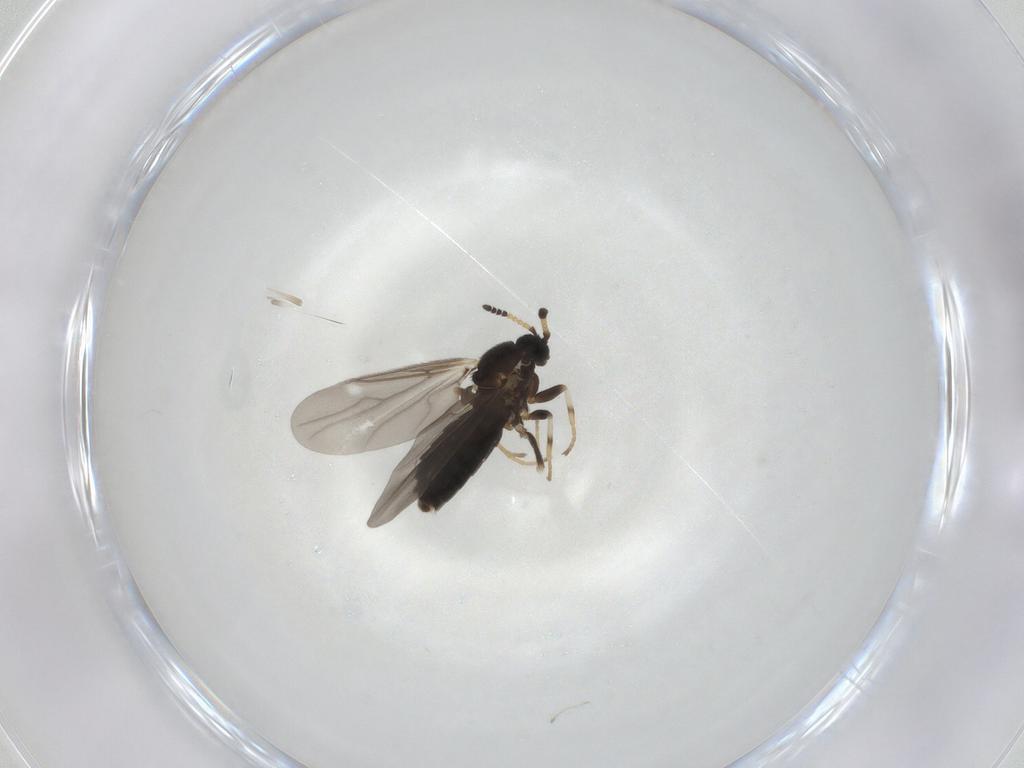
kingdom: Animalia
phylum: Arthropoda
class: Insecta
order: Diptera
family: Scatopsidae
